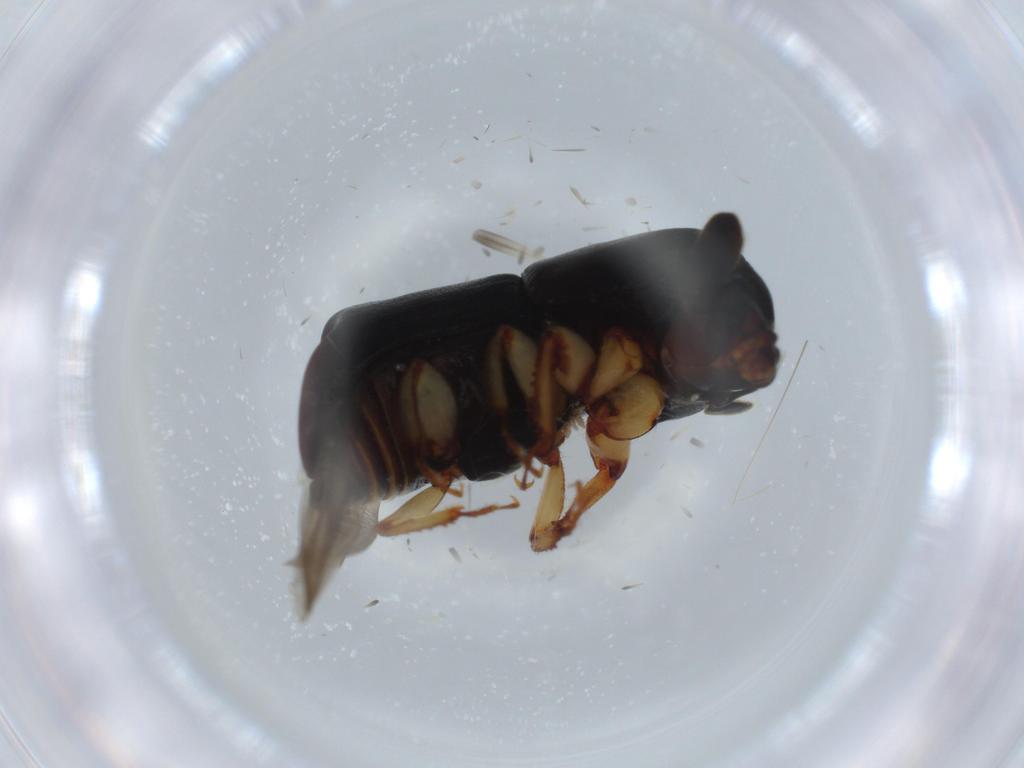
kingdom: Animalia
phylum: Arthropoda
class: Insecta
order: Coleoptera
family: Curculionidae
